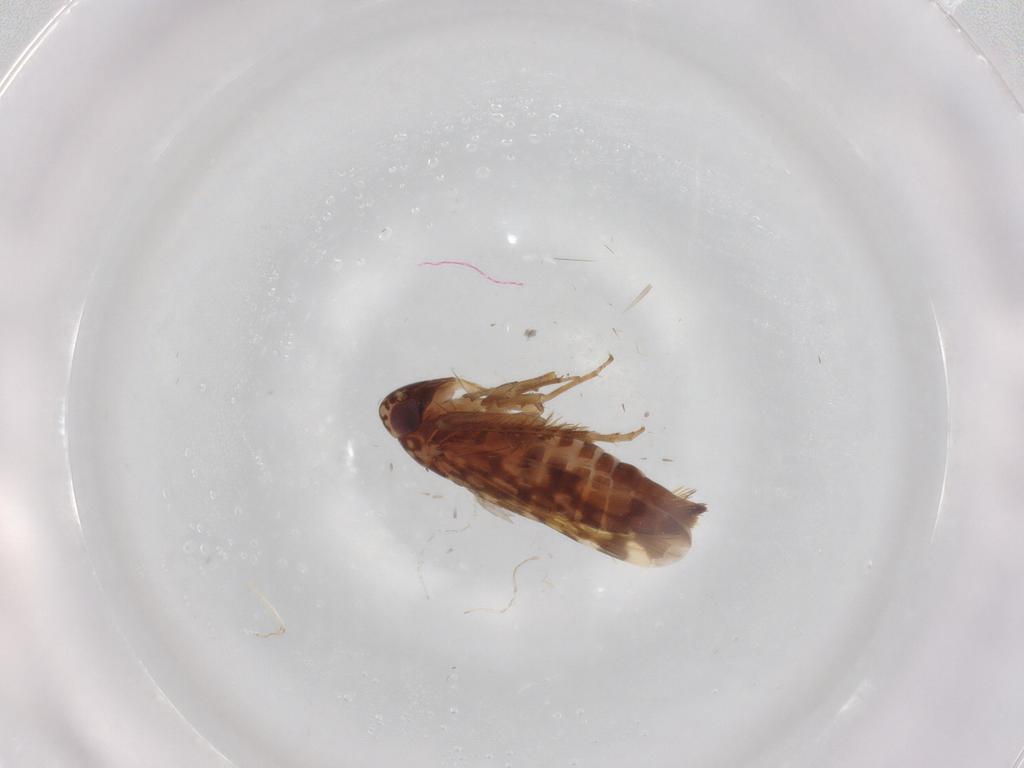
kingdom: Animalia
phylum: Arthropoda
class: Insecta
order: Hemiptera
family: Cicadellidae
